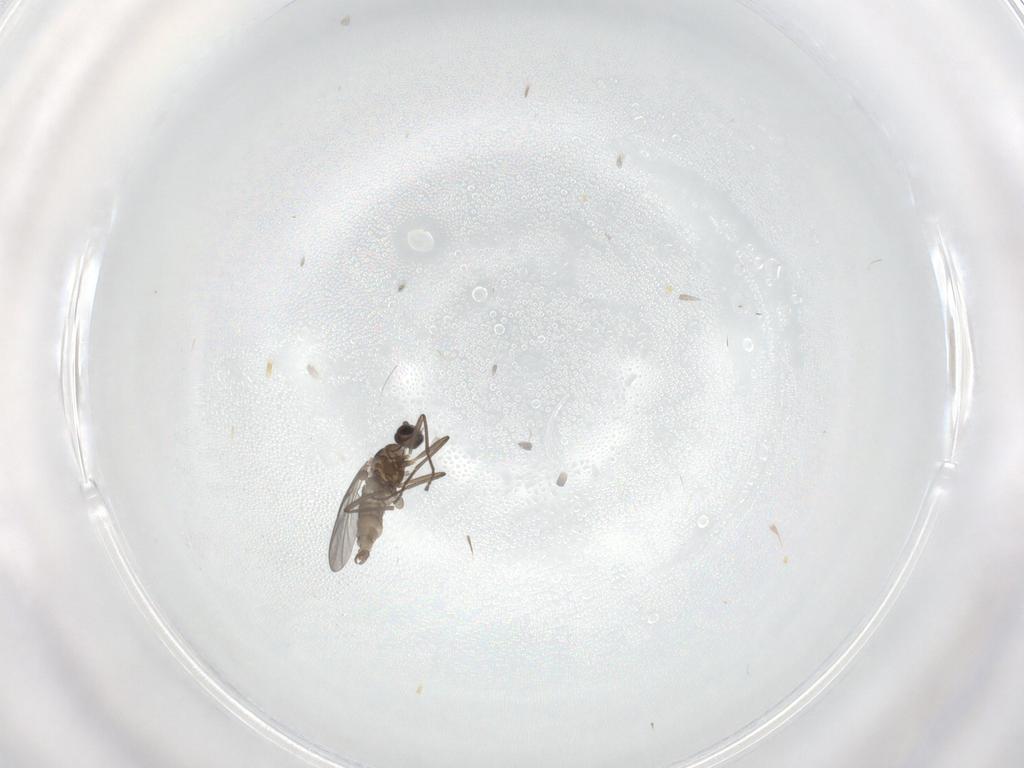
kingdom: Animalia
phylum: Arthropoda
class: Insecta
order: Diptera
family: Cecidomyiidae
